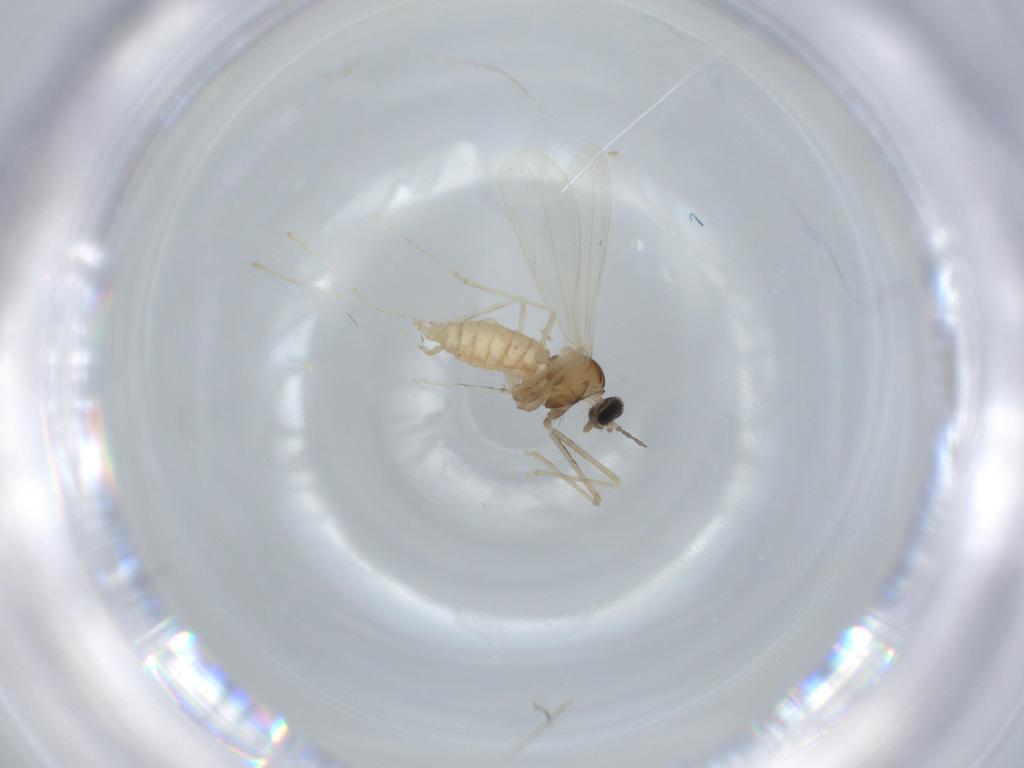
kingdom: Animalia
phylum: Arthropoda
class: Insecta
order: Diptera
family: Cecidomyiidae
